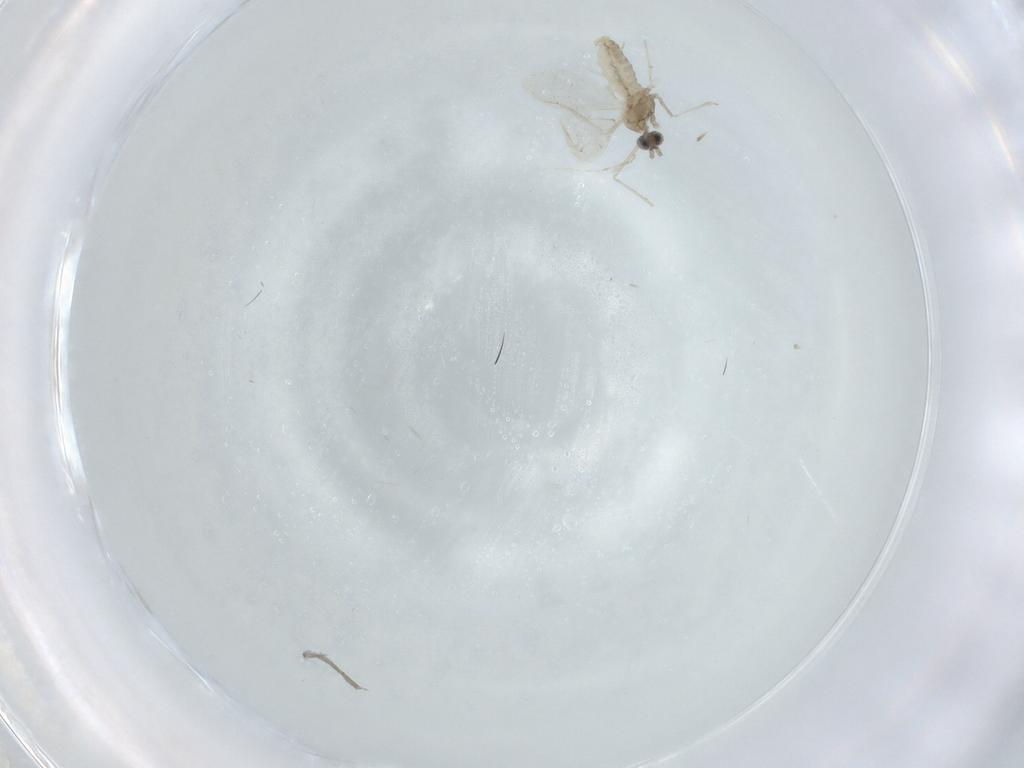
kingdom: Animalia
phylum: Arthropoda
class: Insecta
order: Diptera
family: Cecidomyiidae
